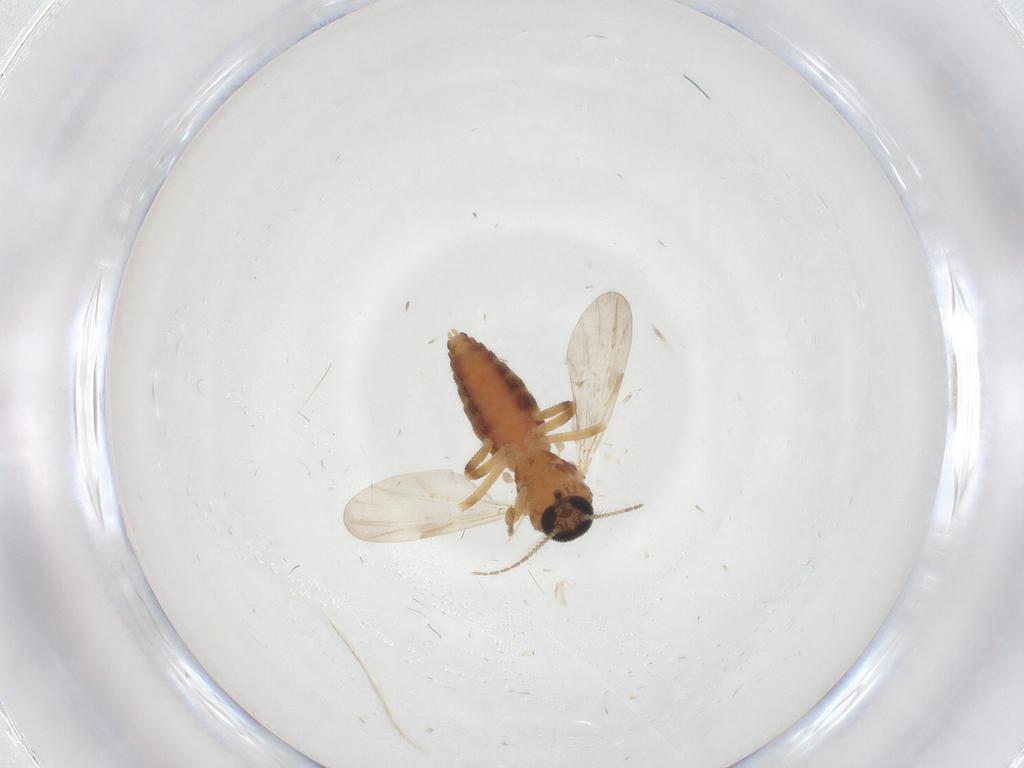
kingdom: Animalia
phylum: Arthropoda
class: Insecta
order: Diptera
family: Ceratopogonidae
